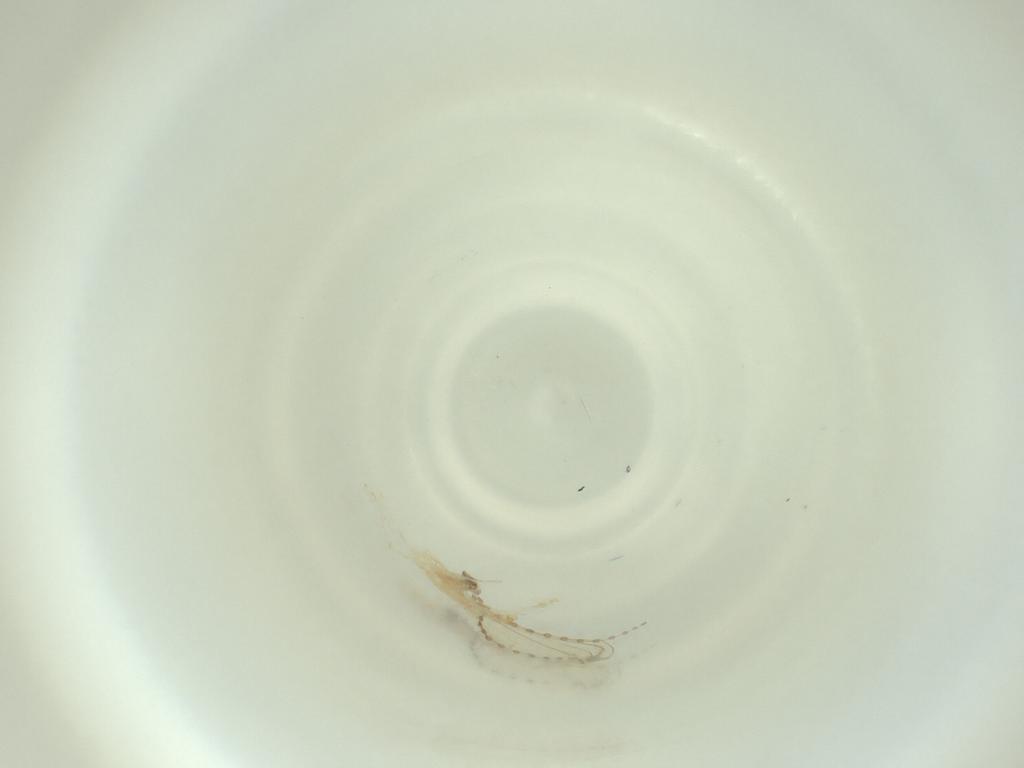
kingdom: Animalia
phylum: Arthropoda
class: Insecta
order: Diptera
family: Cecidomyiidae
